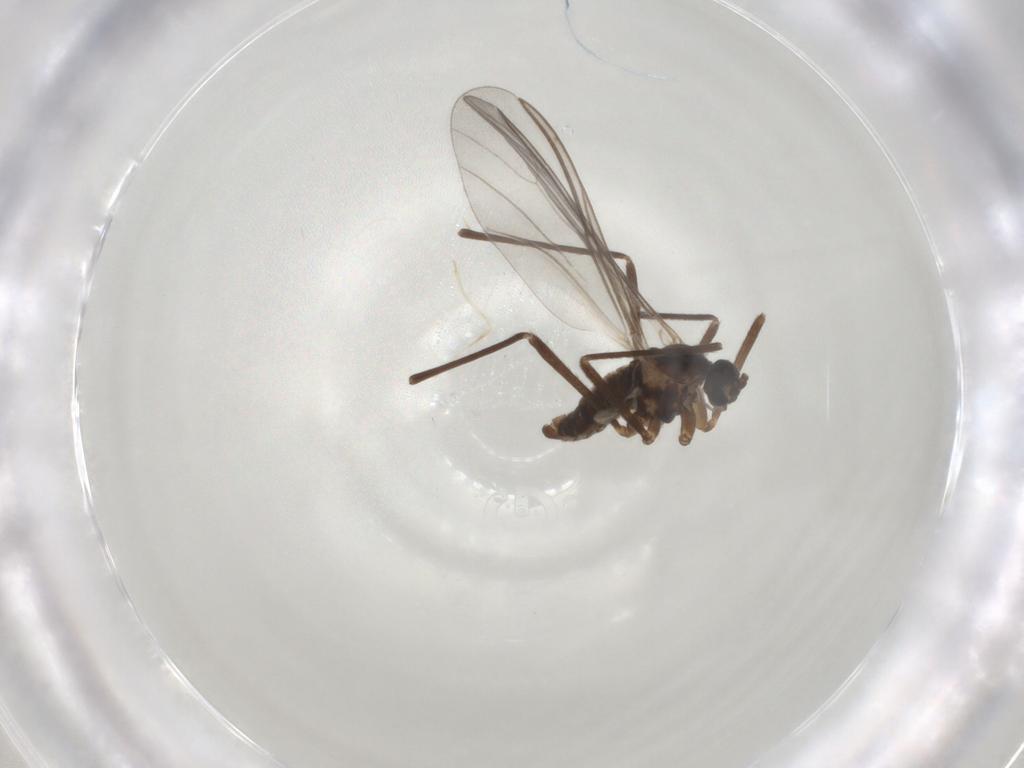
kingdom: Animalia
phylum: Arthropoda
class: Insecta
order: Diptera
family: Cecidomyiidae
